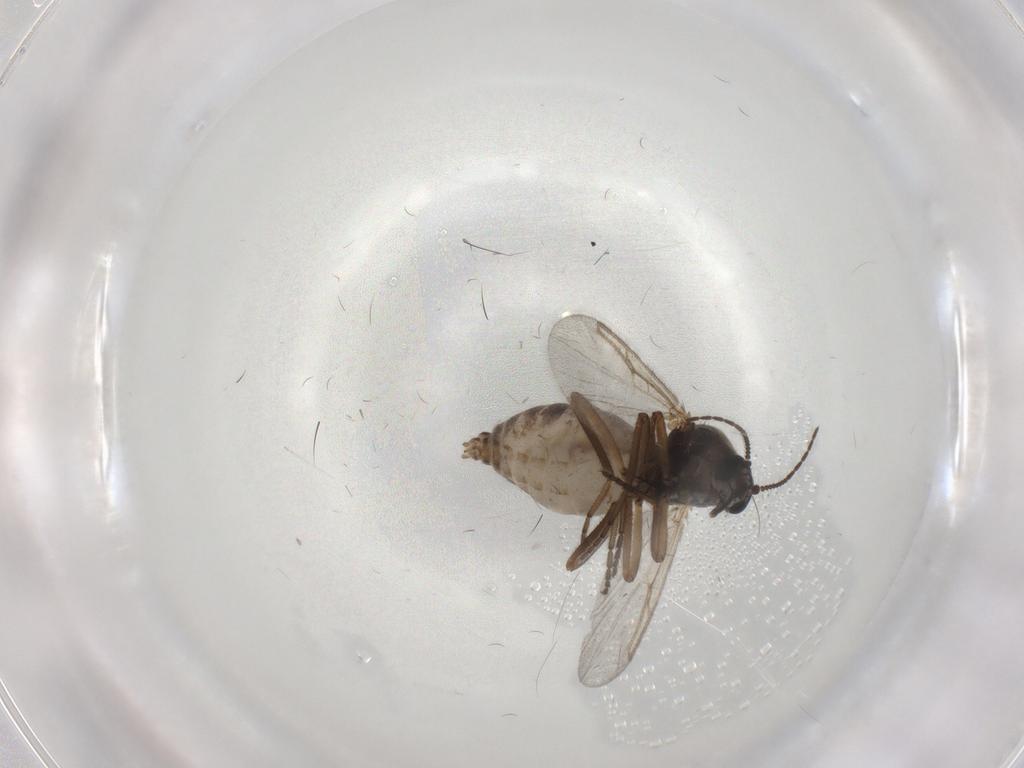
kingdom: Animalia
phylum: Arthropoda
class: Insecta
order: Diptera
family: Ceratopogonidae
